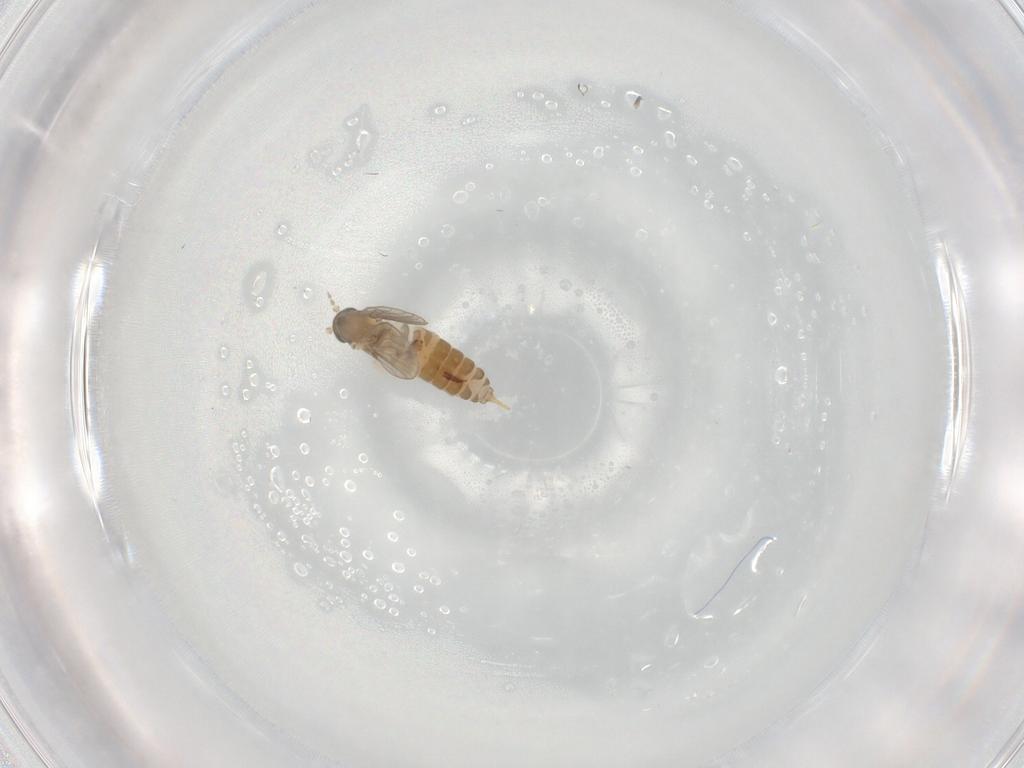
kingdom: Animalia
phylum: Arthropoda
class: Insecta
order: Diptera
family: Psychodidae
